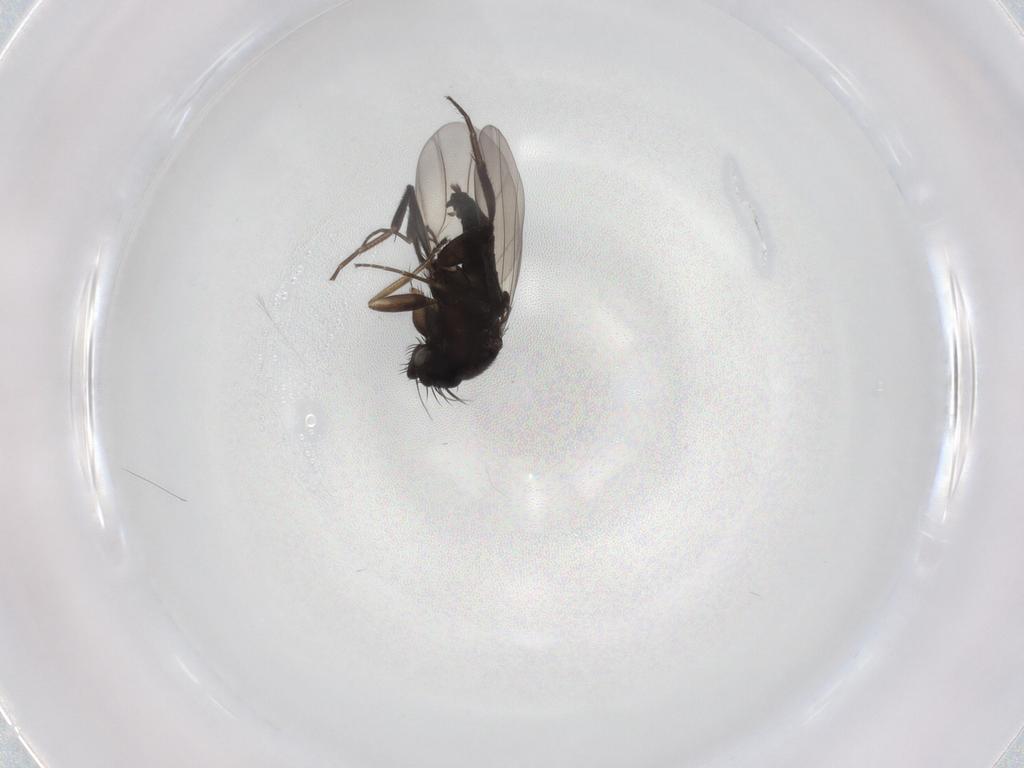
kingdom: Animalia
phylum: Arthropoda
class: Insecta
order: Diptera
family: Phoridae
